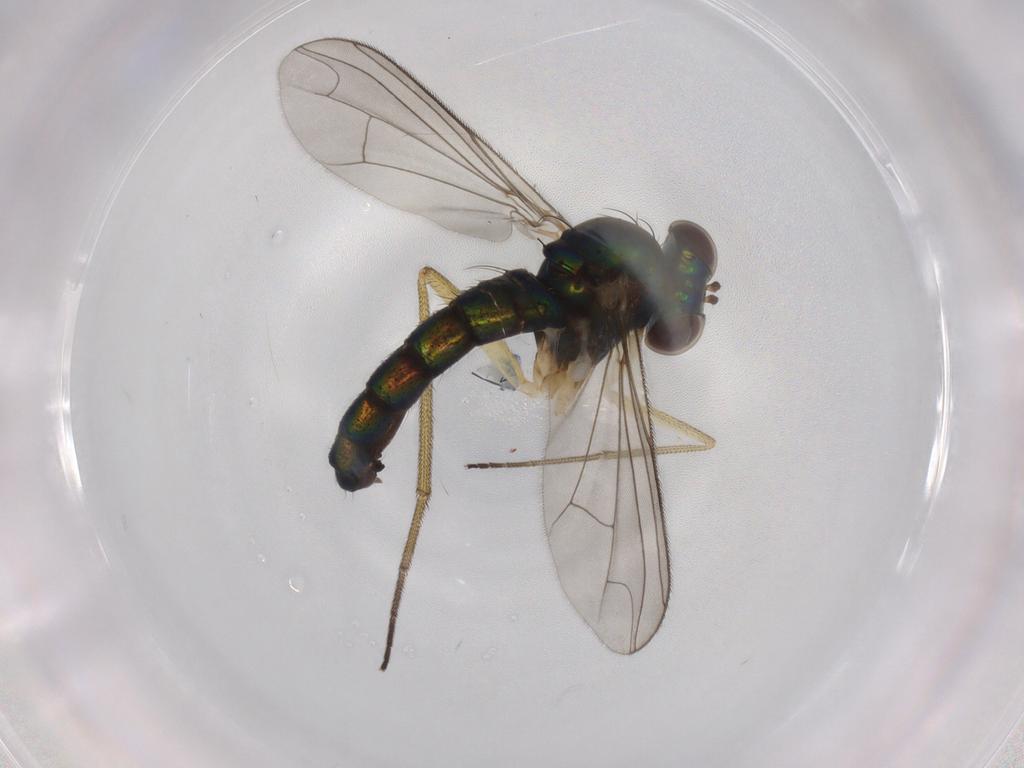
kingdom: Animalia
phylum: Arthropoda
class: Insecta
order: Diptera
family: Dolichopodidae
